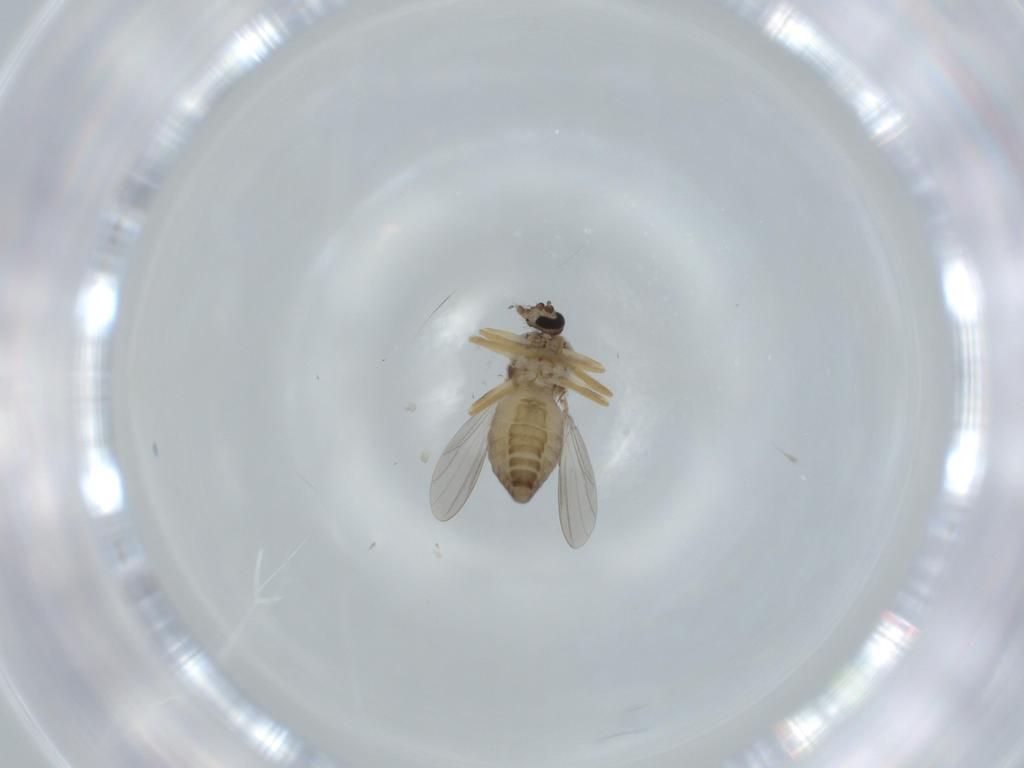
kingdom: Animalia
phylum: Arthropoda
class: Insecta
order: Diptera
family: Ceratopogonidae
